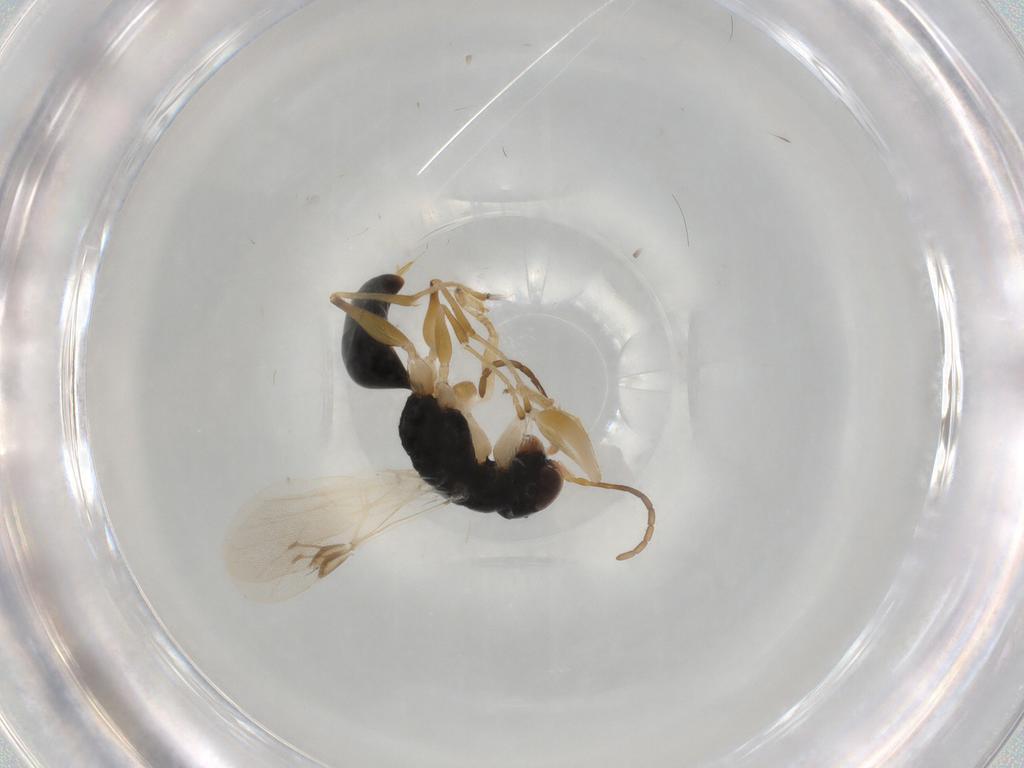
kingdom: Animalia
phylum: Arthropoda
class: Insecta
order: Hymenoptera
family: Dryinidae
